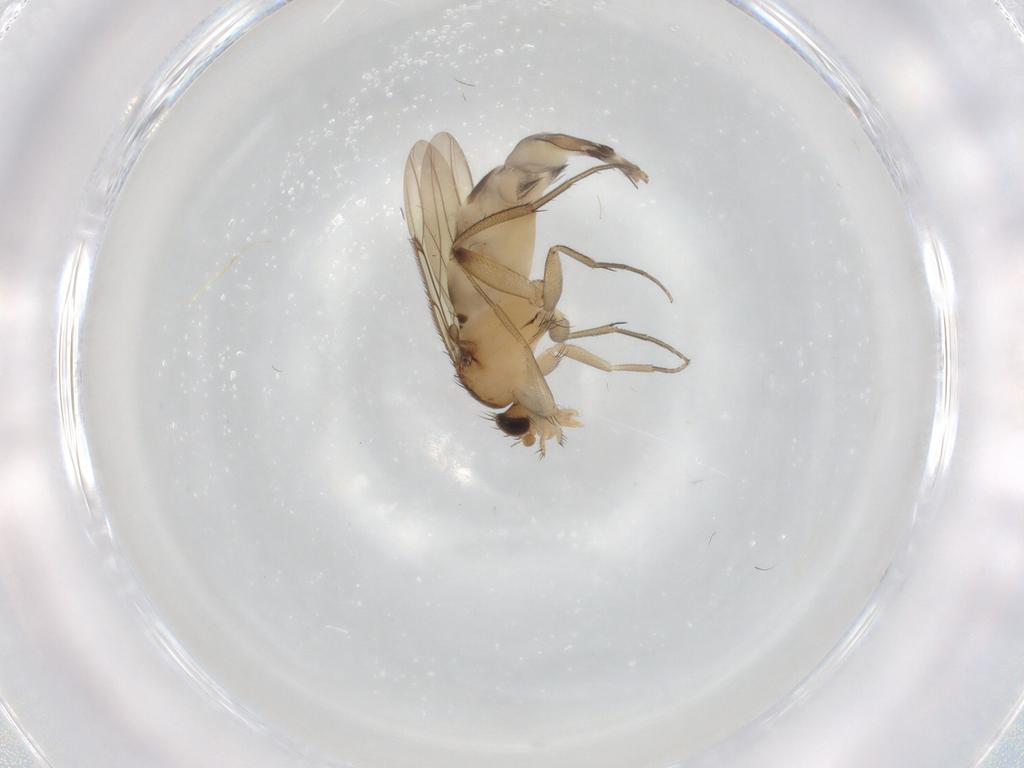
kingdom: Animalia
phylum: Arthropoda
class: Insecta
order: Diptera
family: Phoridae
